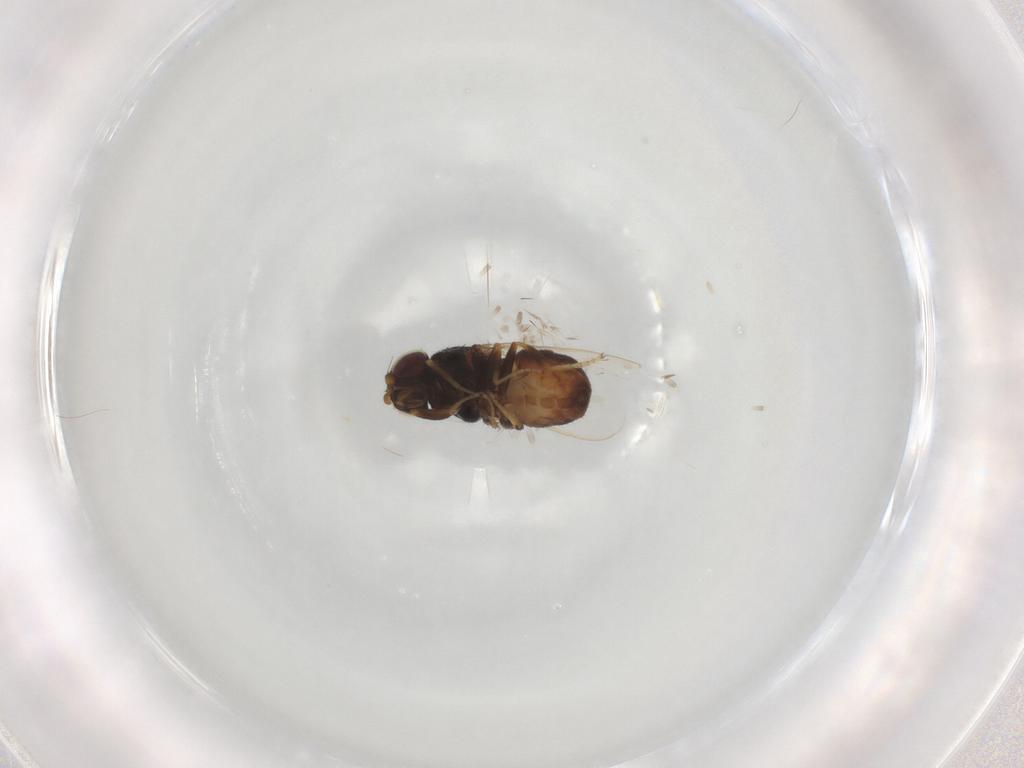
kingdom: Animalia
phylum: Arthropoda
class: Insecta
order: Diptera
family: Chloropidae
